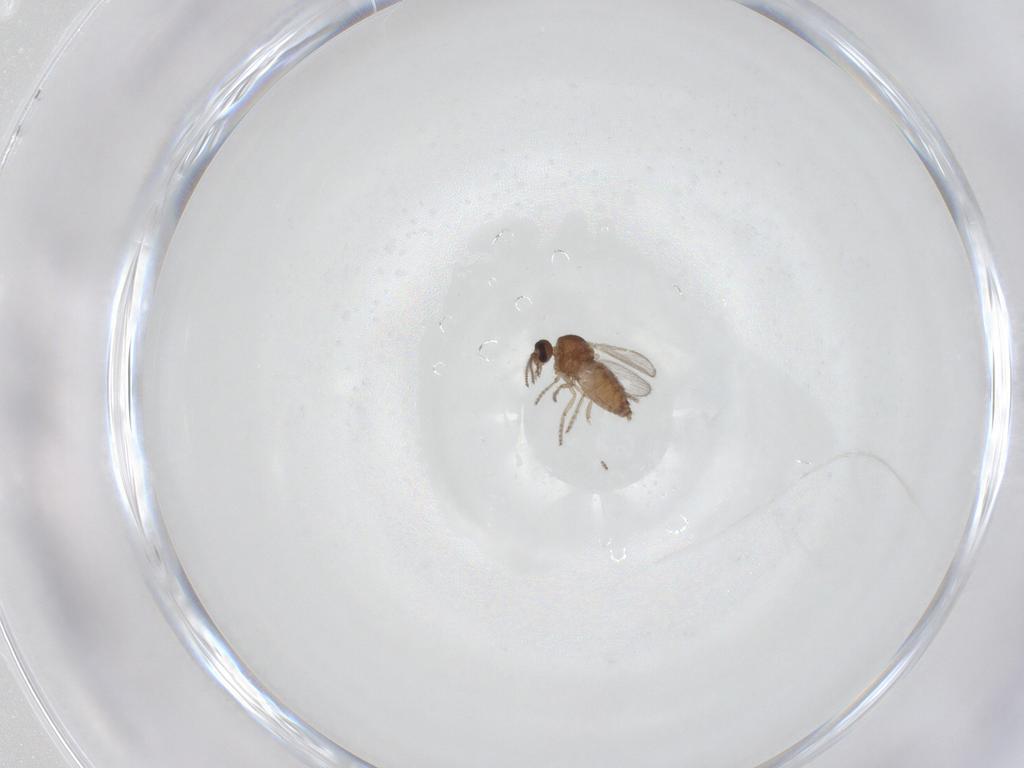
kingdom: Animalia
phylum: Arthropoda
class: Insecta
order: Diptera
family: Ceratopogonidae
